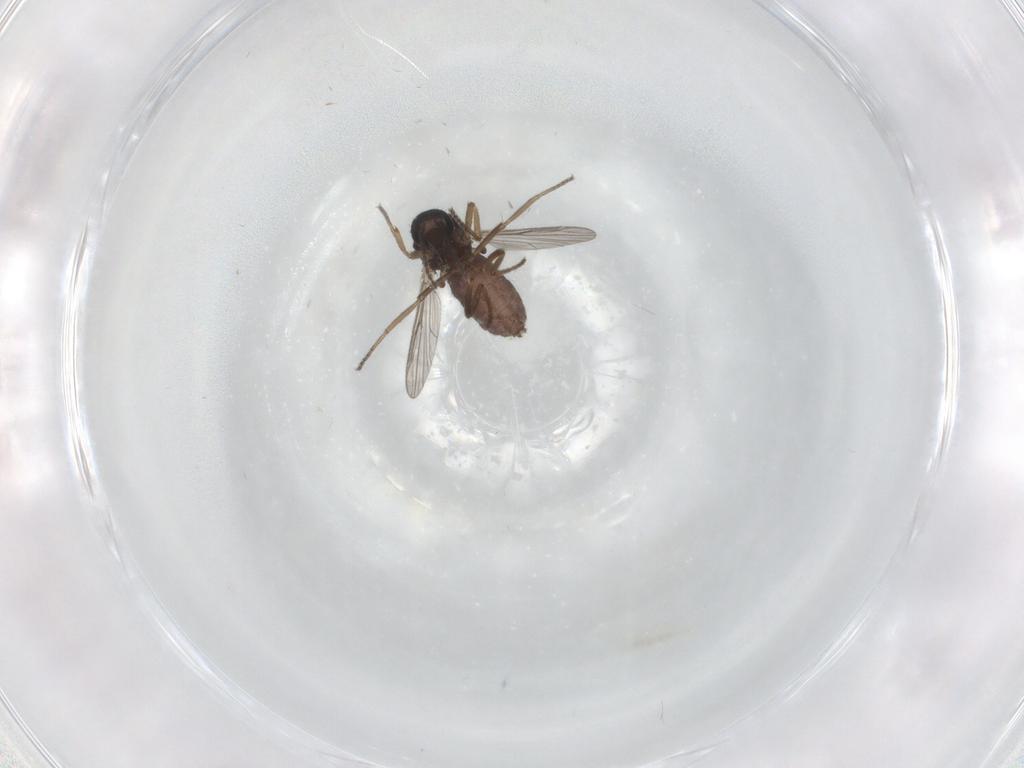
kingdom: Animalia
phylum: Arthropoda
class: Insecta
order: Diptera
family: Ceratopogonidae
